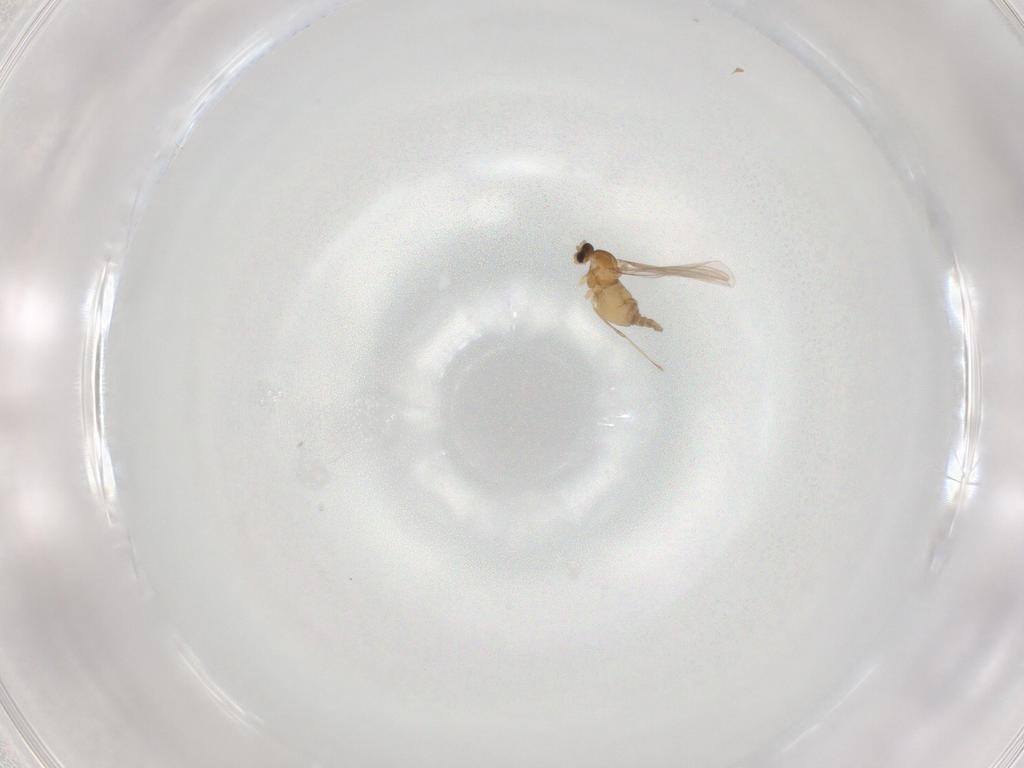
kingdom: Animalia
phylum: Arthropoda
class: Insecta
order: Diptera
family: Cecidomyiidae
